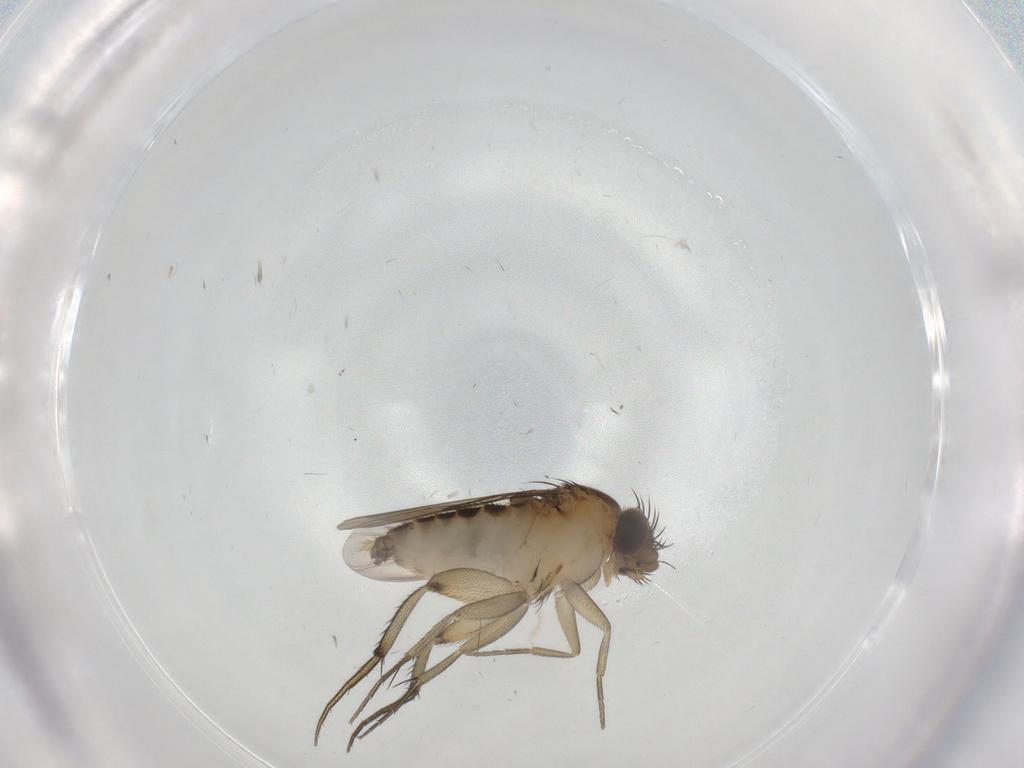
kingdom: Animalia
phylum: Arthropoda
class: Insecta
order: Diptera
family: Phoridae
